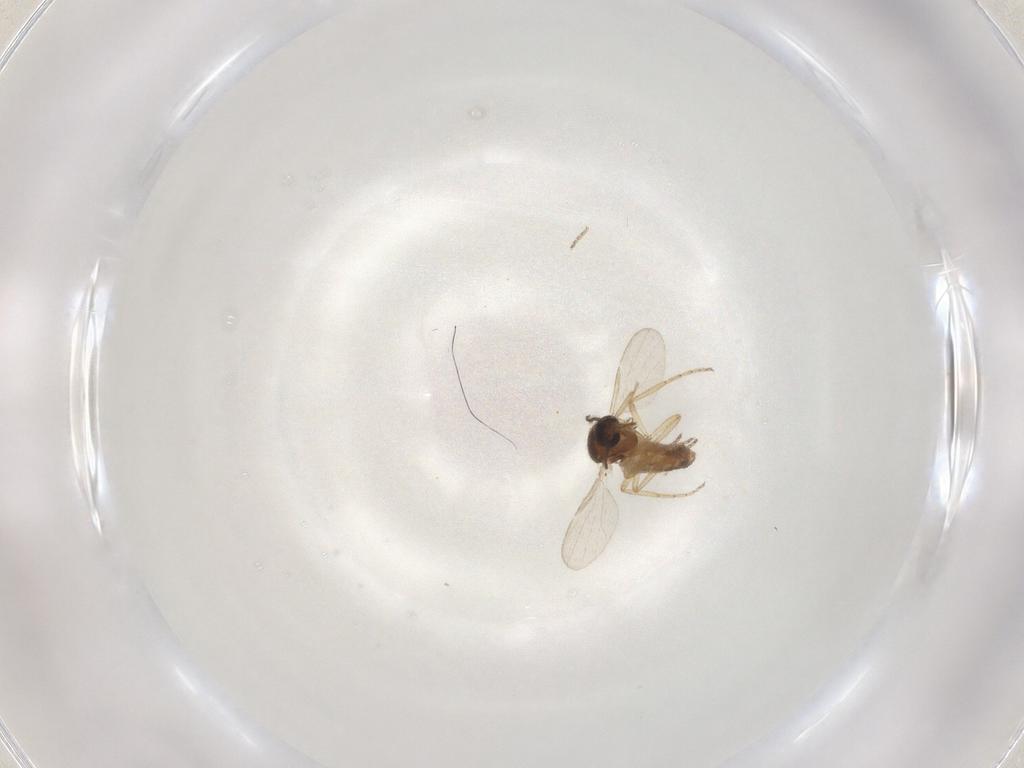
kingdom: Animalia
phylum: Arthropoda
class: Insecta
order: Diptera
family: Ceratopogonidae
